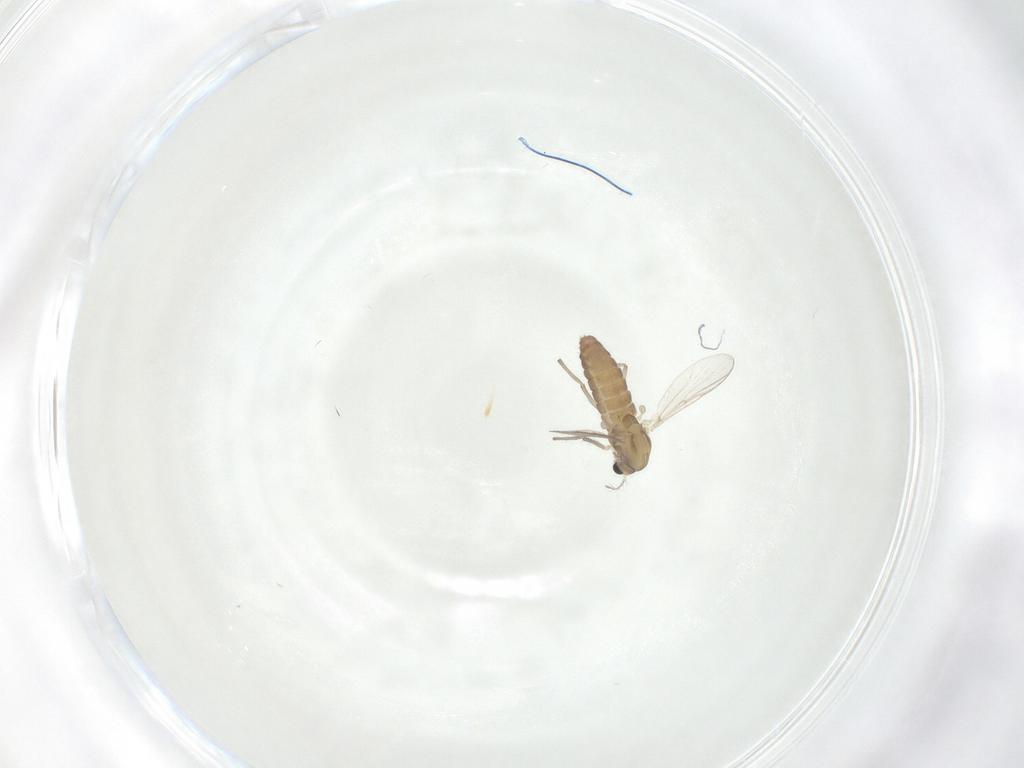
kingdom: Animalia
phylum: Arthropoda
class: Insecta
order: Diptera
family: Chironomidae
